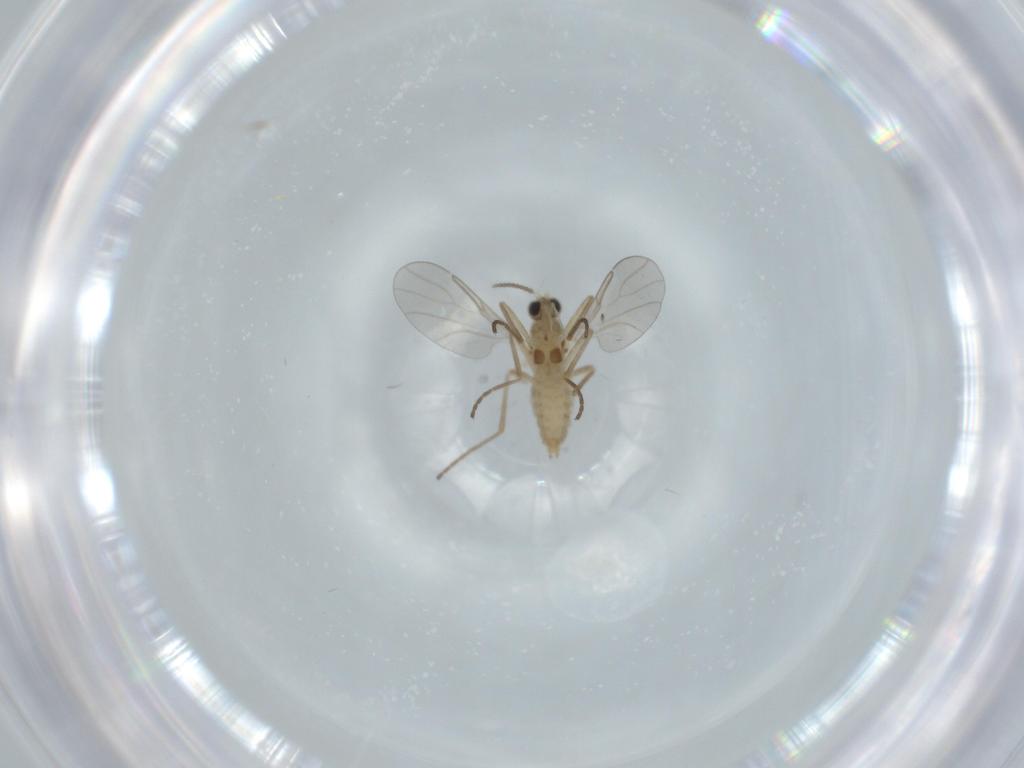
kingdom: Animalia
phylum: Arthropoda
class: Insecta
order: Diptera
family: Cecidomyiidae
